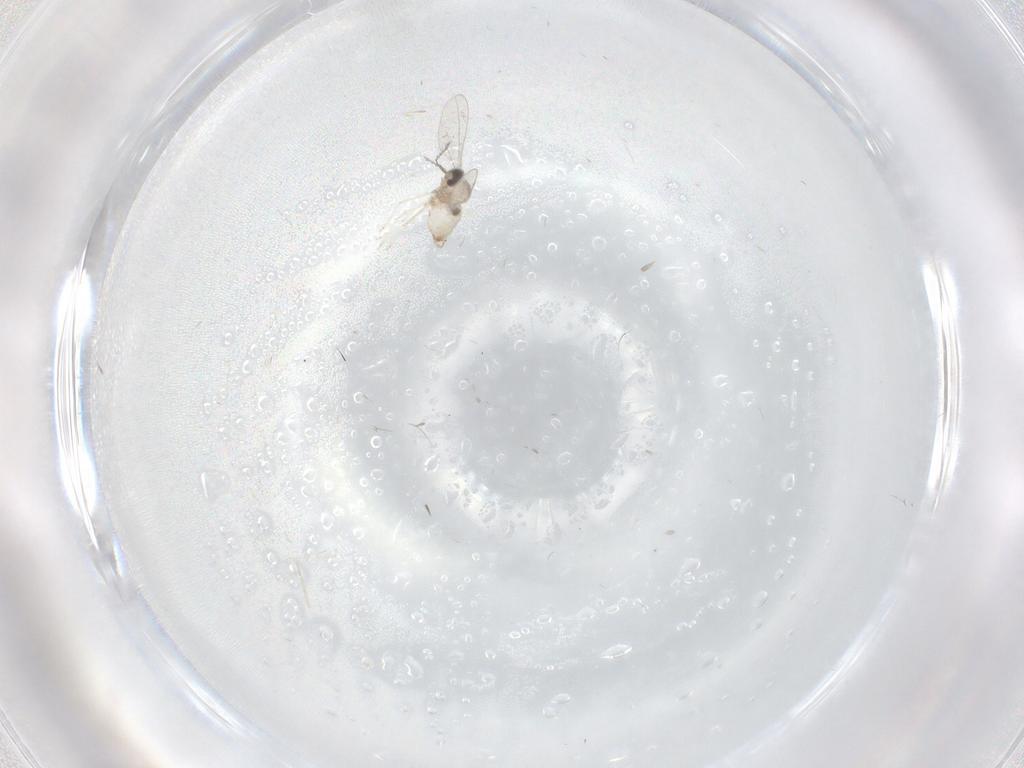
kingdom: Animalia
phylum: Arthropoda
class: Insecta
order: Diptera
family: Cecidomyiidae
